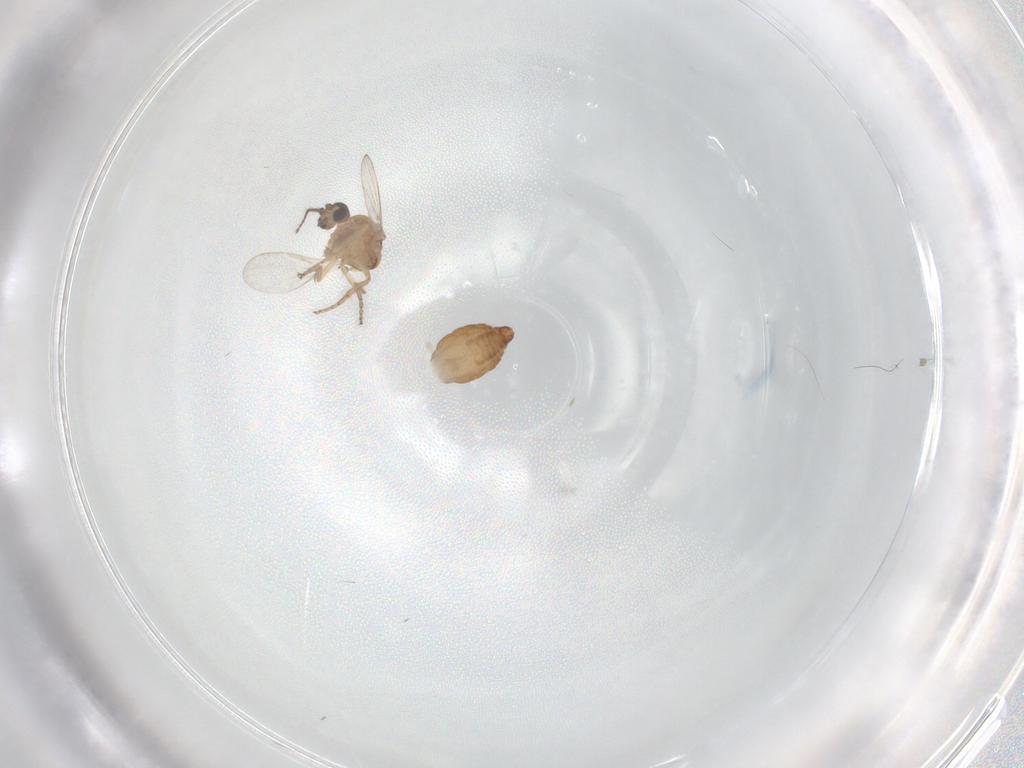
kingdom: Animalia
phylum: Arthropoda
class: Insecta
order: Diptera
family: Ceratopogonidae
